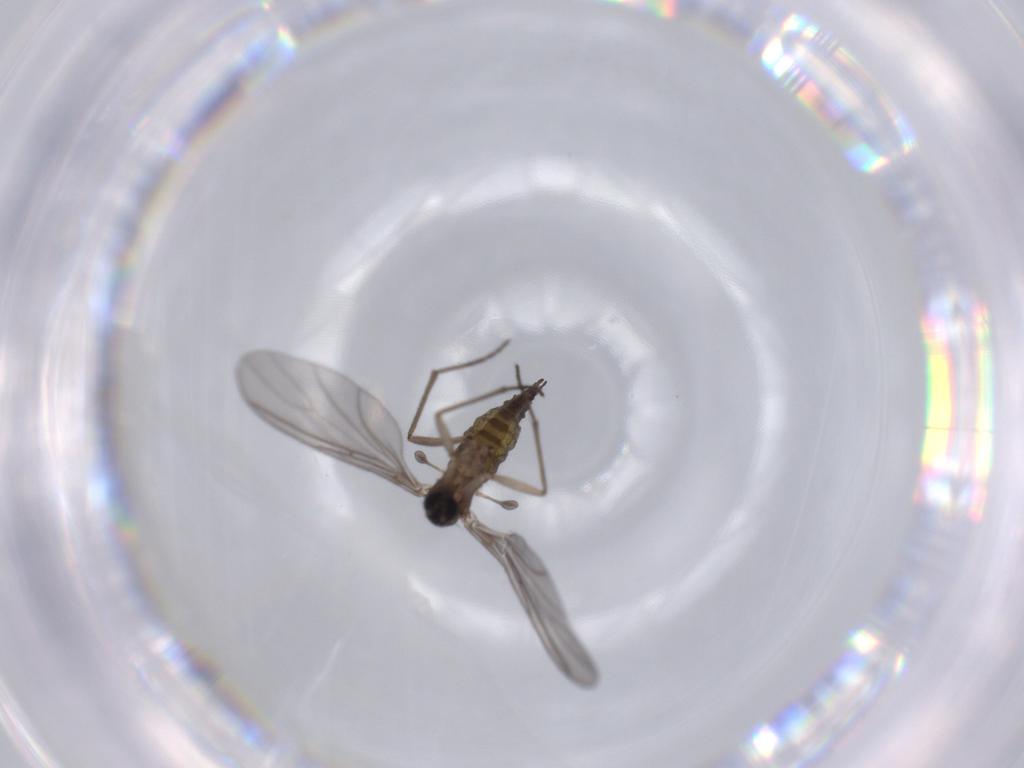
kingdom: Animalia
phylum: Arthropoda
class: Insecta
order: Diptera
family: Sciaridae
